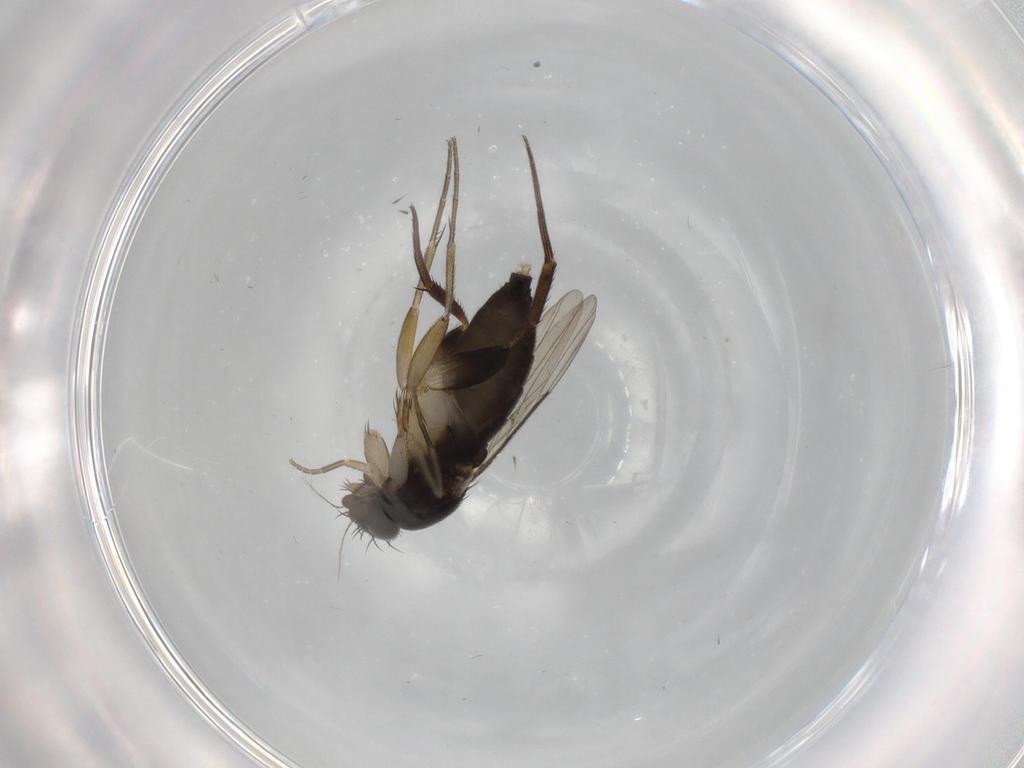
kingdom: Animalia
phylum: Arthropoda
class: Insecta
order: Diptera
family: Phoridae
